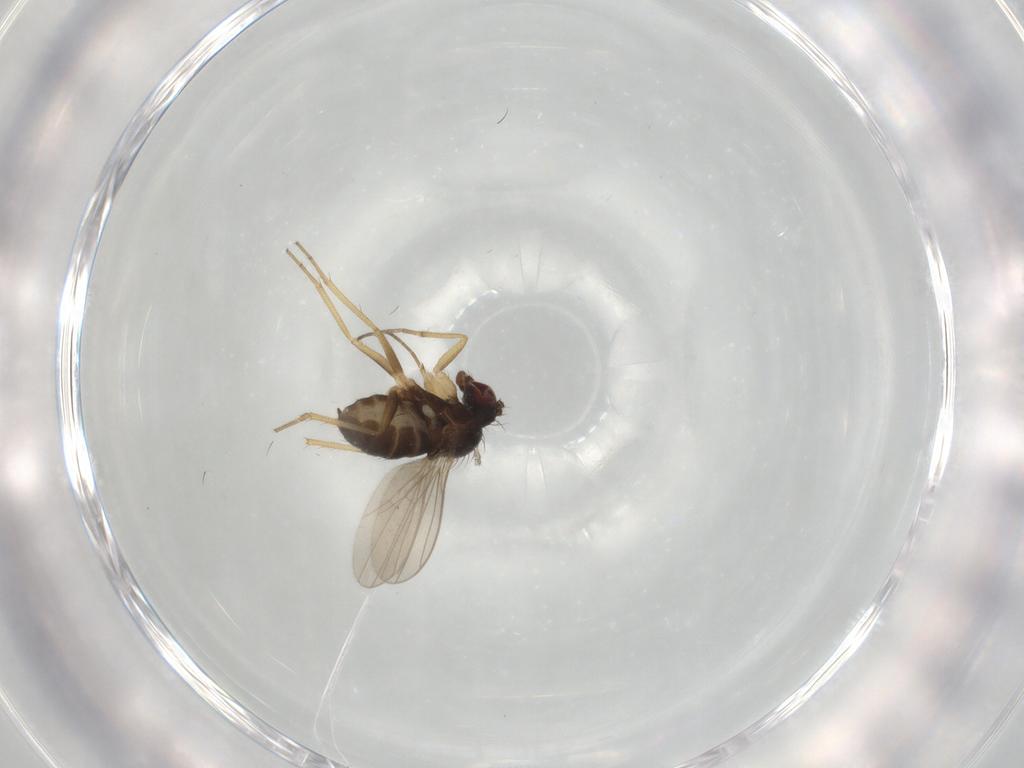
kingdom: Animalia
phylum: Arthropoda
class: Insecta
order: Diptera
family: Dolichopodidae
